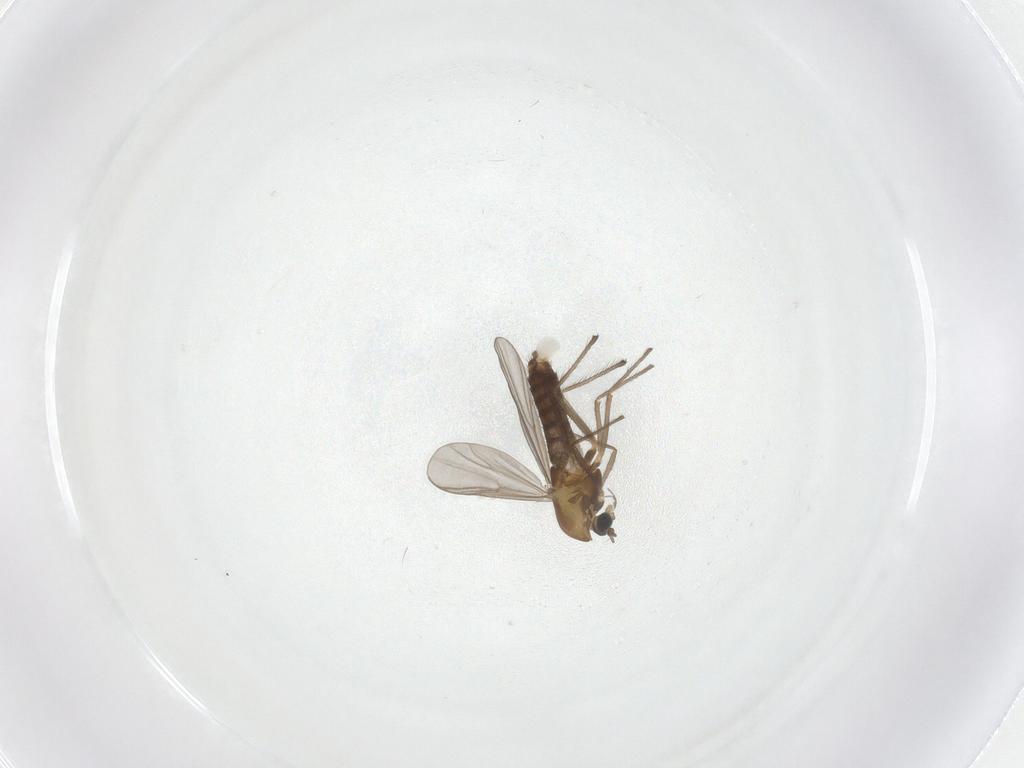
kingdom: Animalia
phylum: Arthropoda
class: Insecta
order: Diptera
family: Chironomidae
